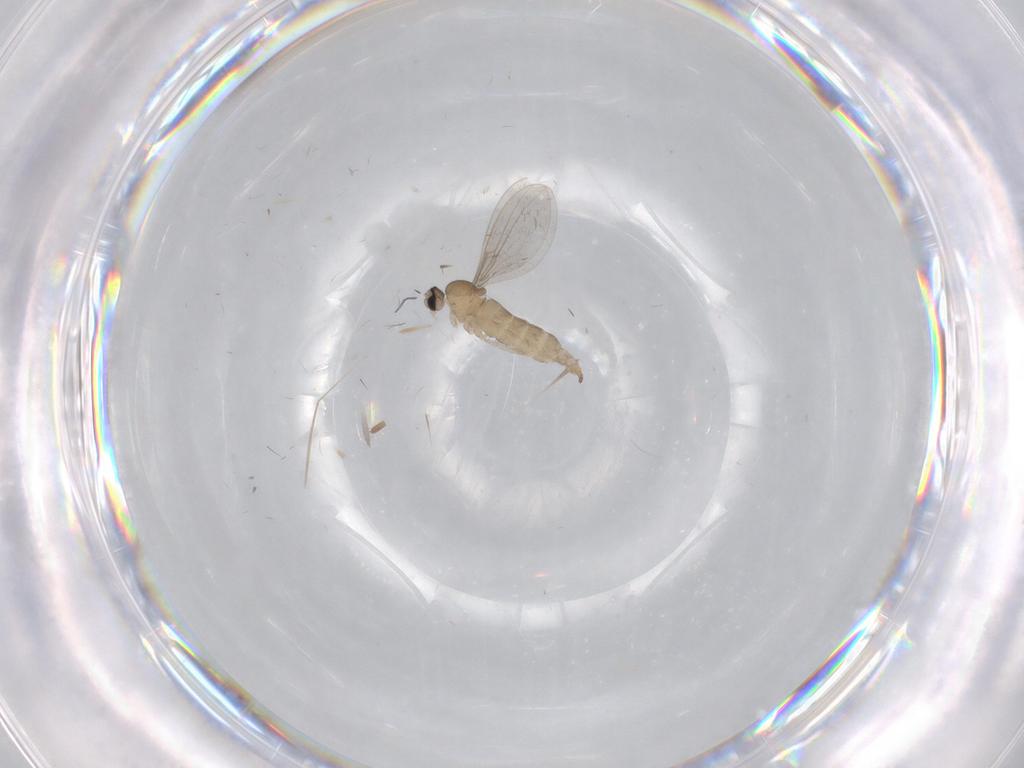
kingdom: Animalia
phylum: Arthropoda
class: Insecta
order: Diptera
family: Cecidomyiidae
